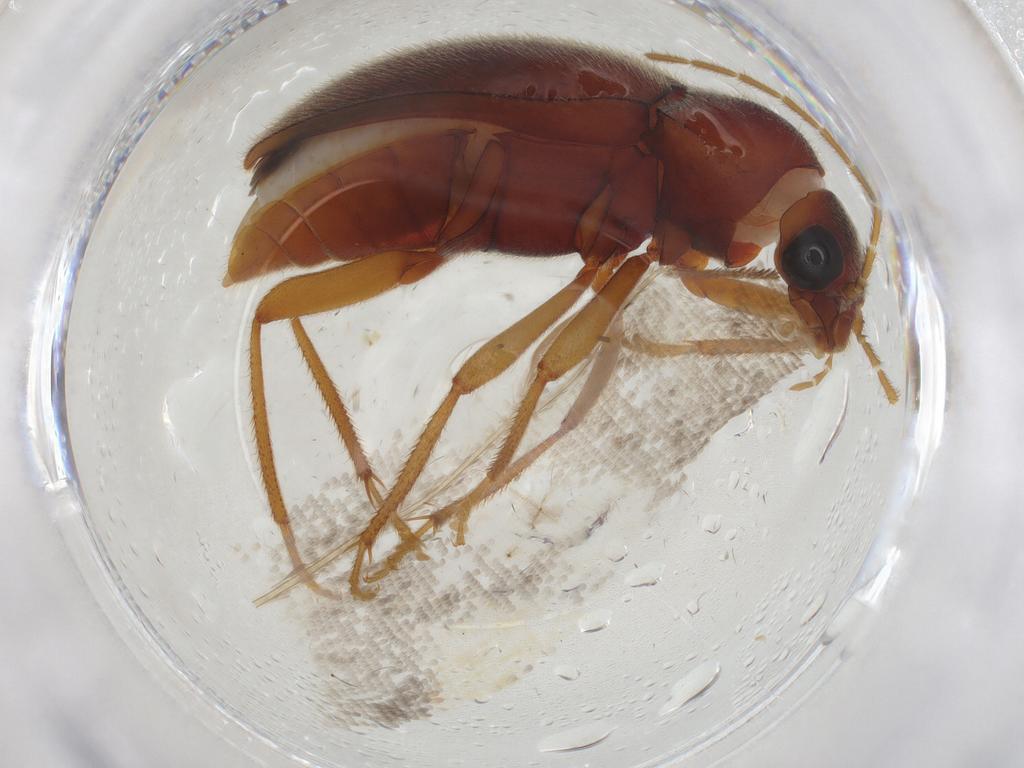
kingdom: Animalia
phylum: Arthropoda
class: Insecta
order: Coleoptera
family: Ptilodactylidae
